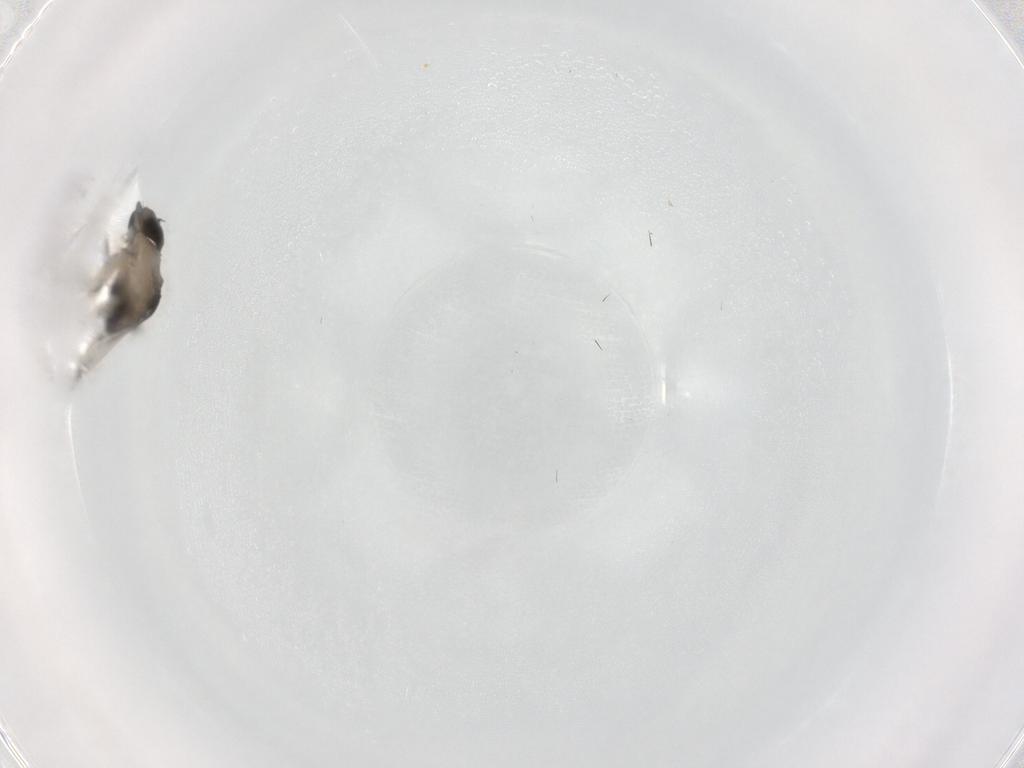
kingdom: Animalia
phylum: Arthropoda
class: Insecta
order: Diptera
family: Phoridae
